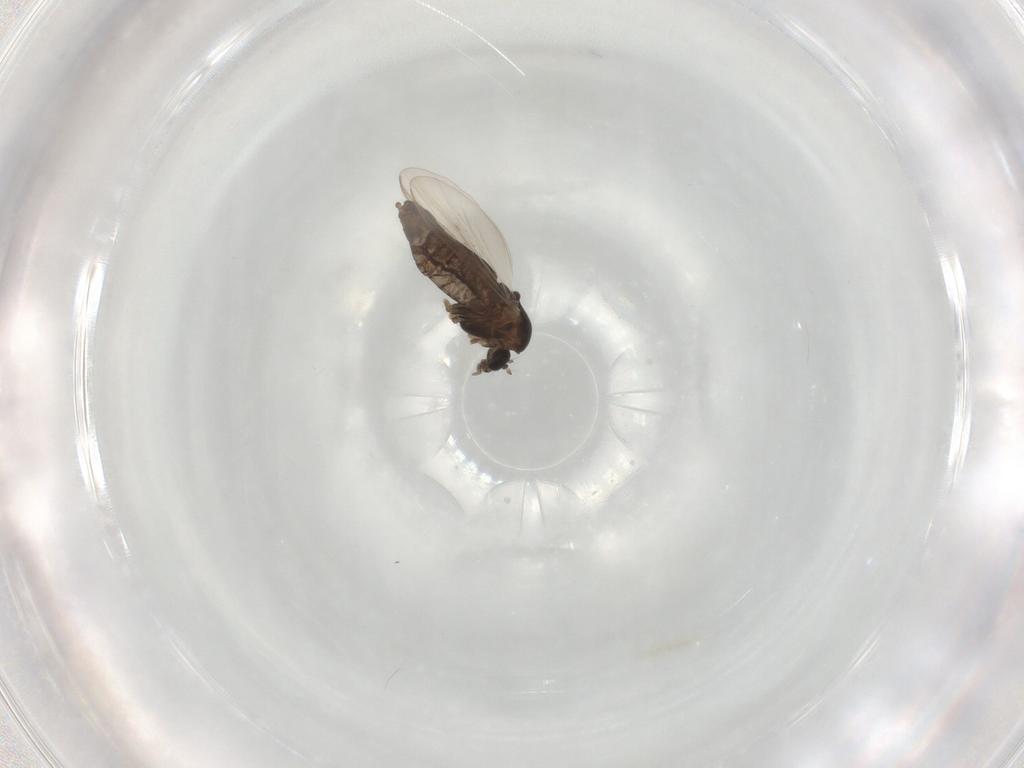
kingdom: Animalia
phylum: Arthropoda
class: Insecta
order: Diptera
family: Chironomidae
